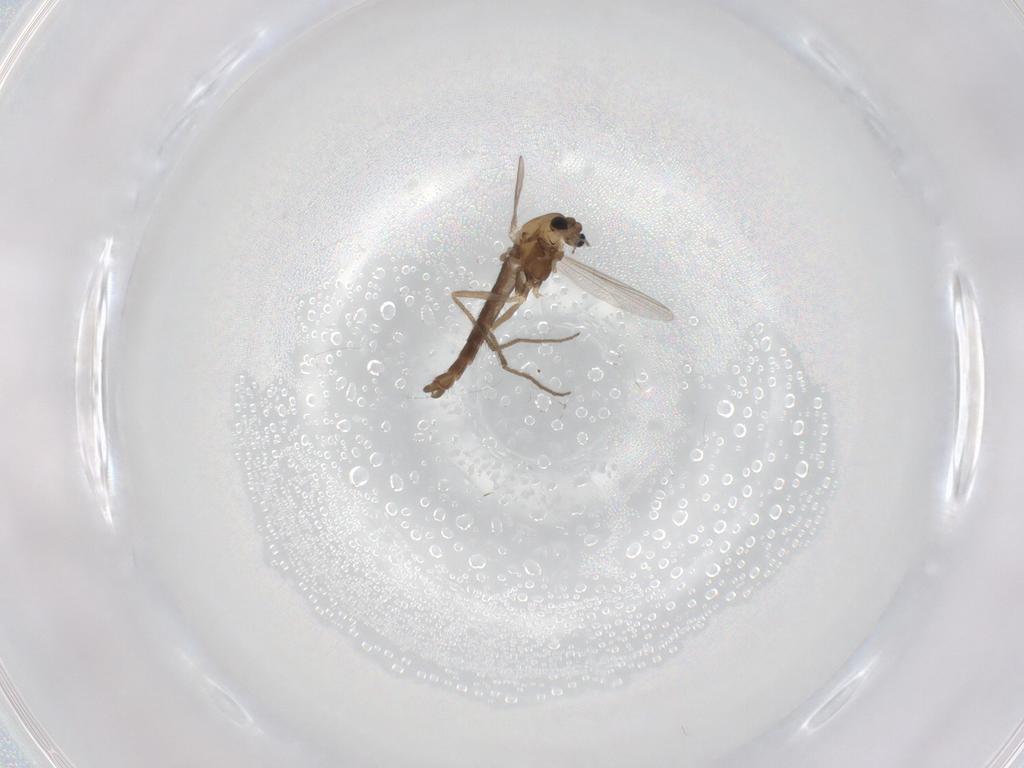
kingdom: Animalia
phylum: Arthropoda
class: Insecta
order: Diptera
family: Chironomidae
